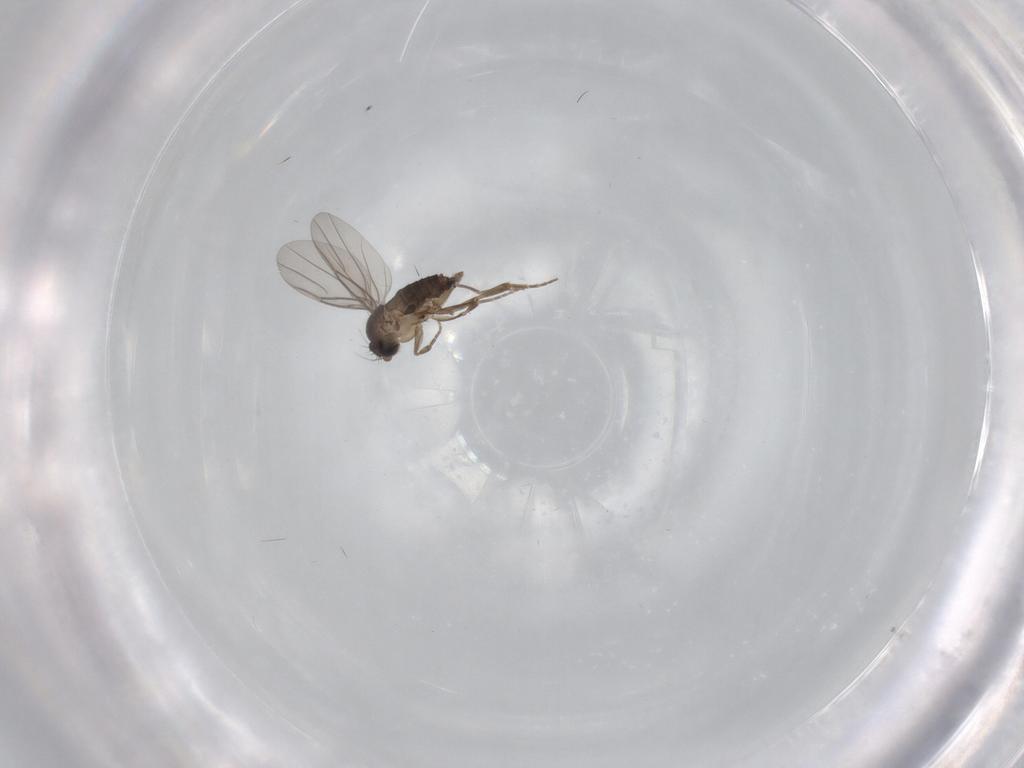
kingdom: Animalia
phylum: Arthropoda
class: Insecta
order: Diptera
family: Phoridae
